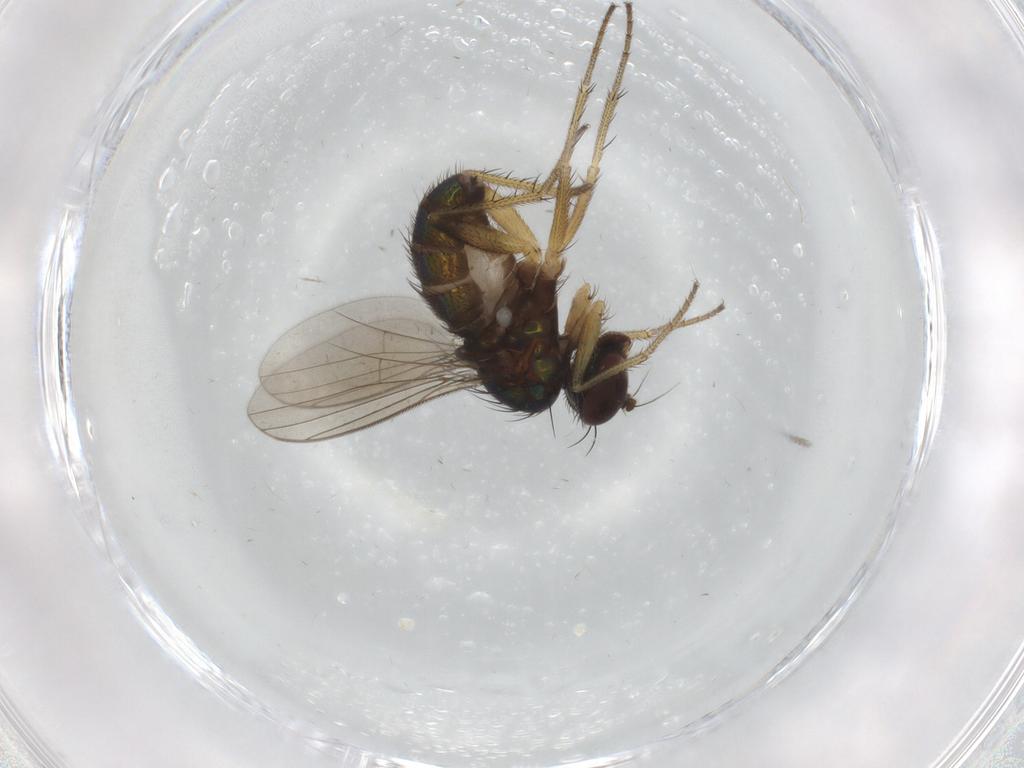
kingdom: Animalia
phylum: Arthropoda
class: Insecta
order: Diptera
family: Dolichopodidae
